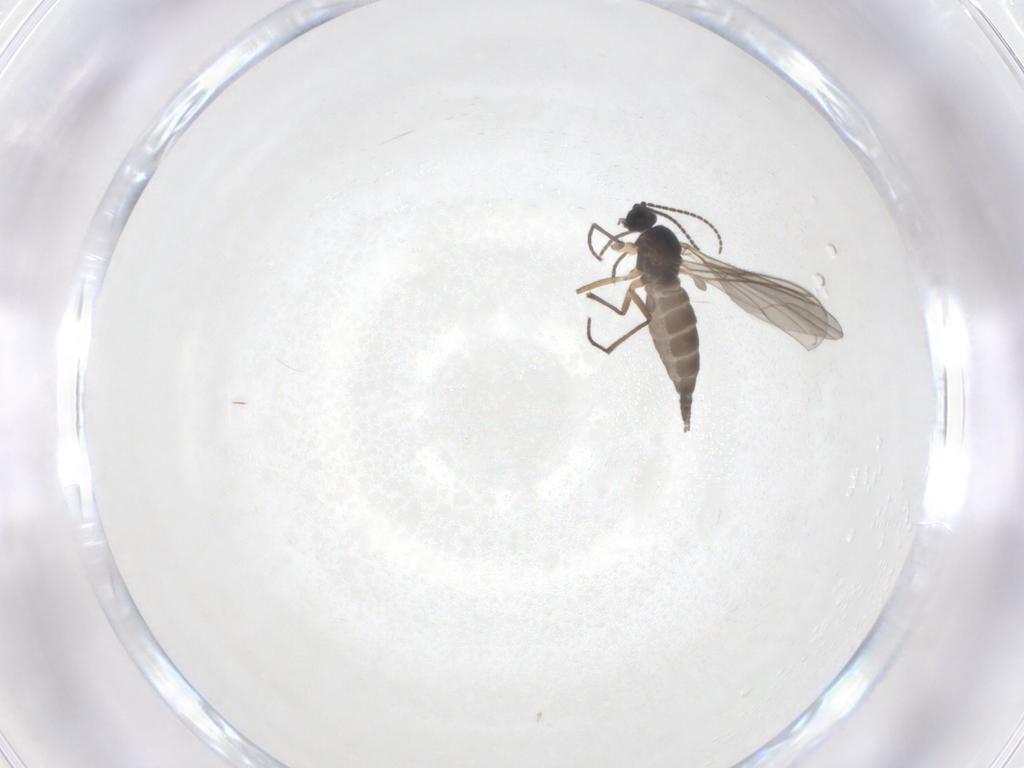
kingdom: Animalia
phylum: Arthropoda
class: Insecta
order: Diptera
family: Sciaridae
